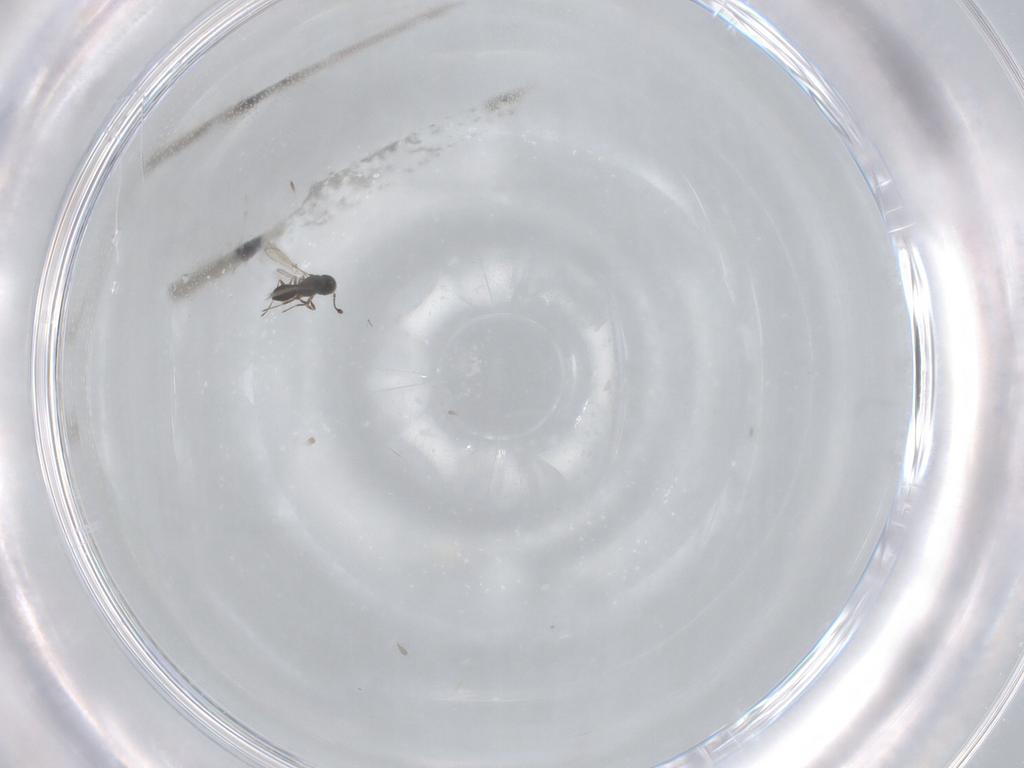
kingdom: Animalia
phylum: Arthropoda
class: Insecta
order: Hymenoptera
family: Scelionidae
